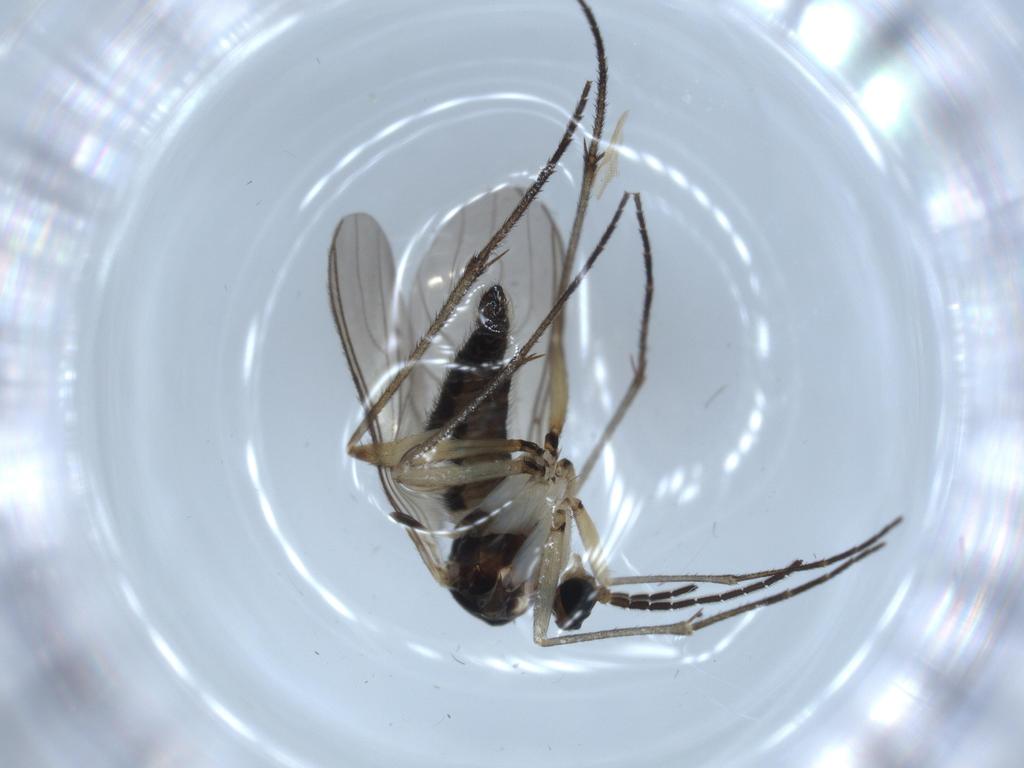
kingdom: Animalia
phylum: Arthropoda
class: Insecta
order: Diptera
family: Sciaridae
